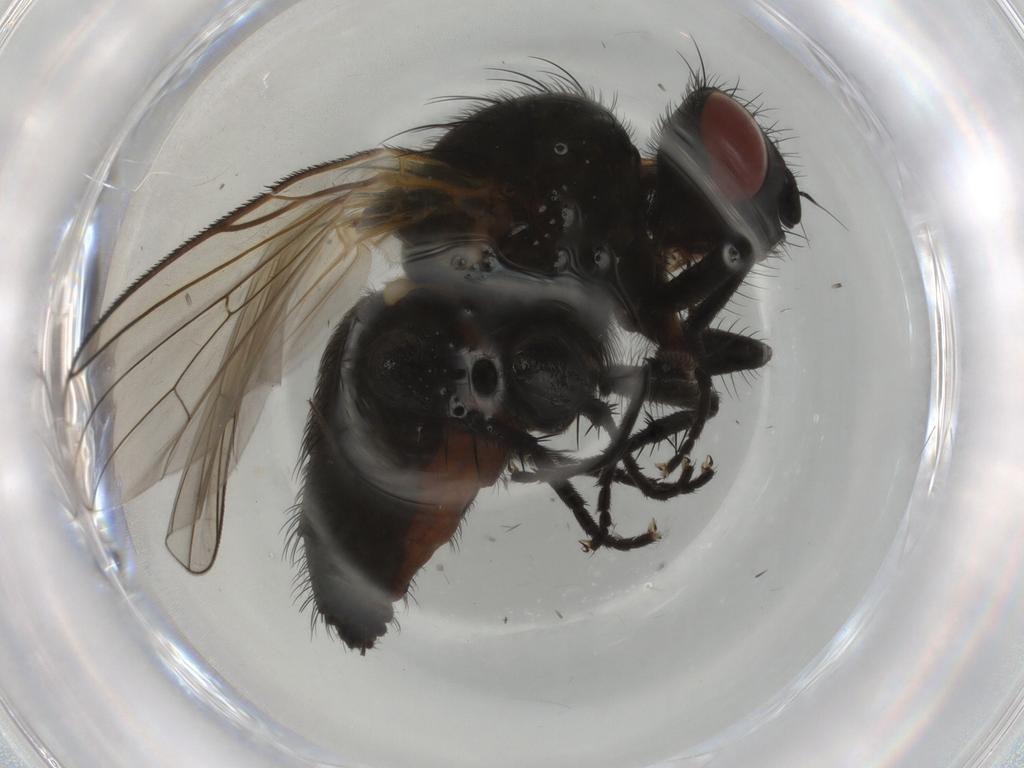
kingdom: Animalia
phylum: Arthropoda
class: Insecta
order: Diptera
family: Anthomyiidae
